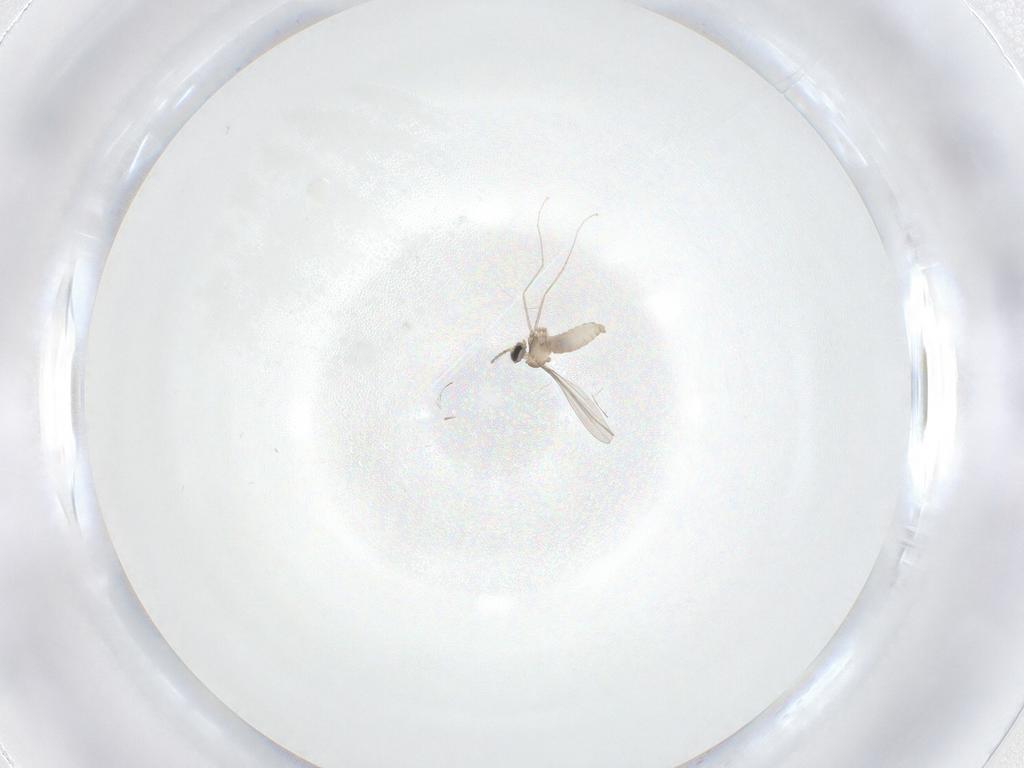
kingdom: Animalia
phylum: Arthropoda
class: Insecta
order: Diptera
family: Cecidomyiidae
